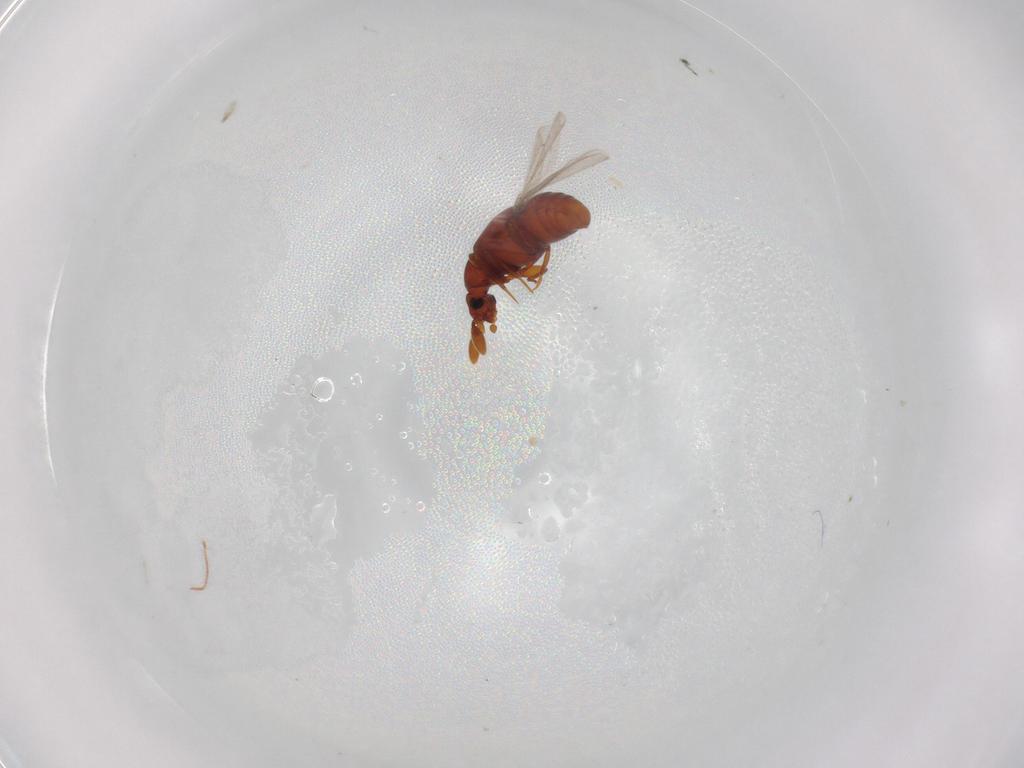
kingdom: Animalia
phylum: Arthropoda
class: Insecta
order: Coleoptera
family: Staphylinidae
